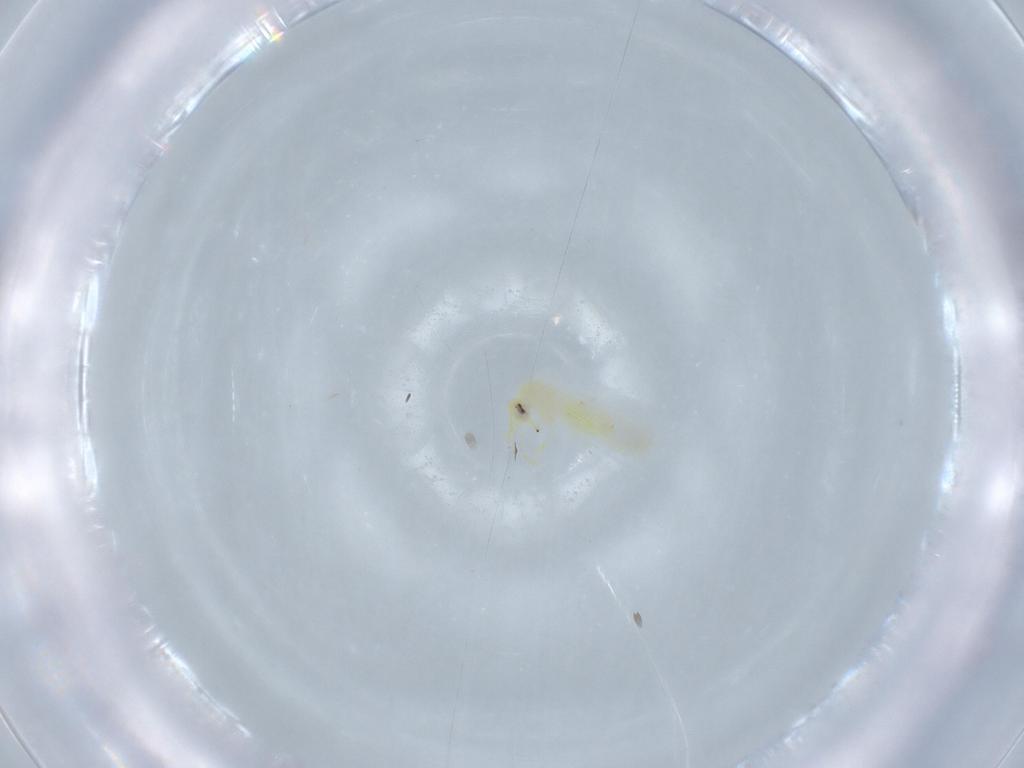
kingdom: Animalia
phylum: Arthropoda
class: Insecta
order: Hemiptera
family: Aleyrodidae
